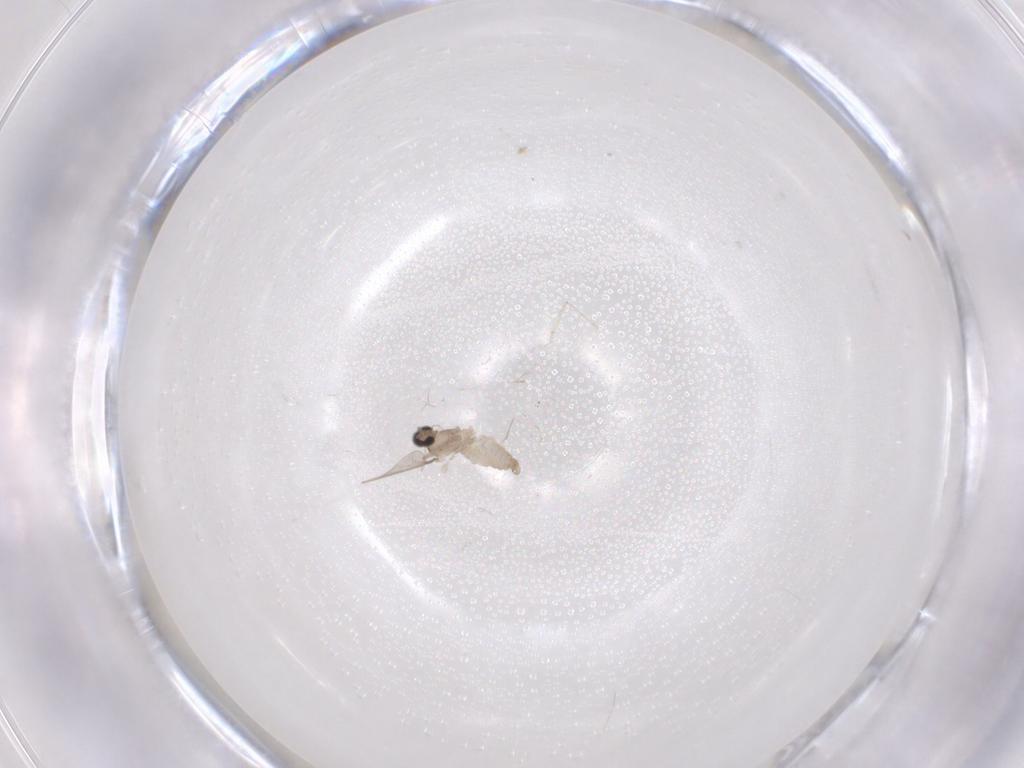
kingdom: Animalia
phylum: Arthropoda
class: Insecta
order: Diptera
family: Cecidomyiidae
